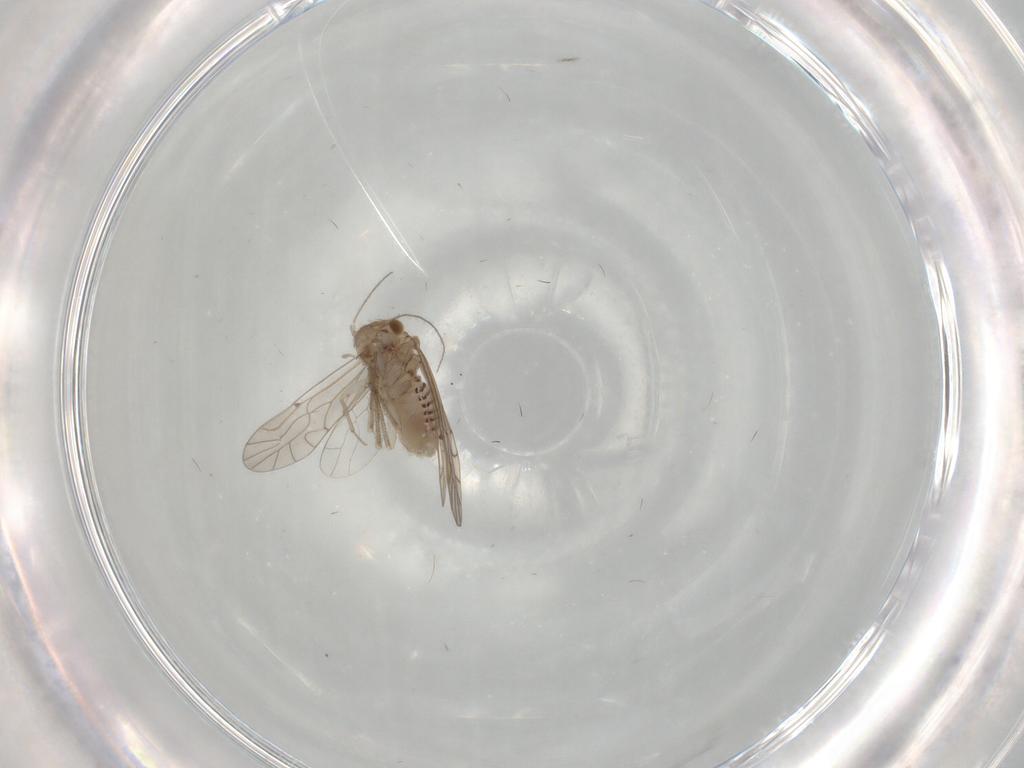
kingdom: Animalia
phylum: Arthropoda
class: Insecta
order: Psocodea
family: Lachesillidae
